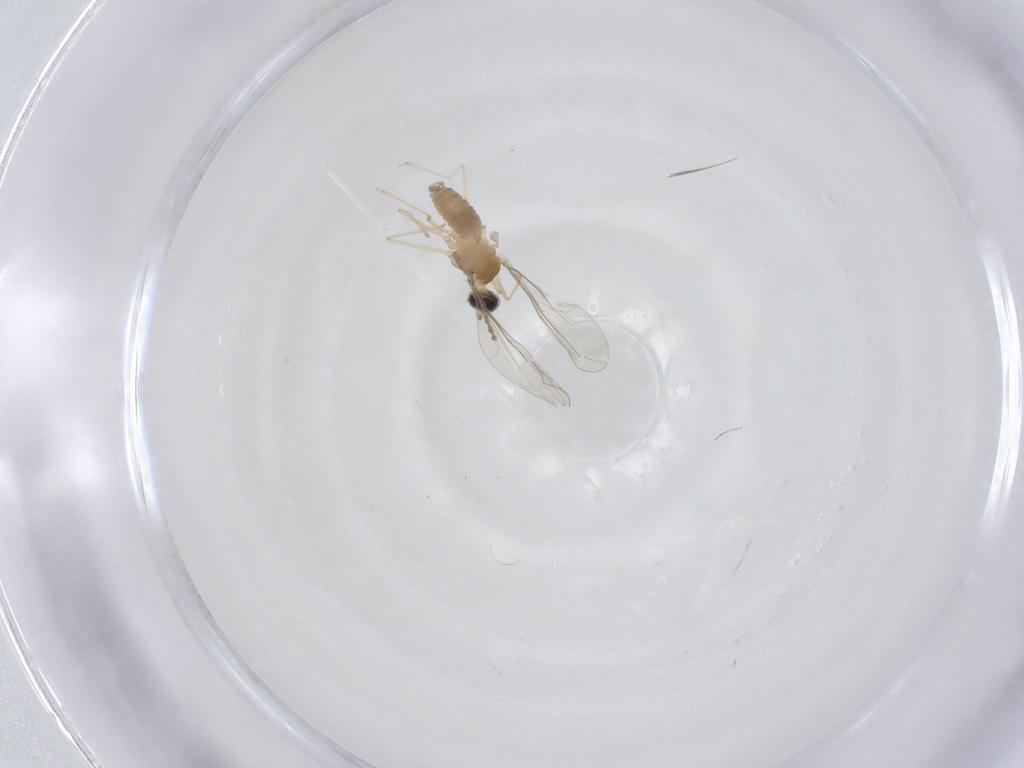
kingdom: Animalia
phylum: Arthropoda
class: Insecta
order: Diptera
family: Cecidomyiidae
